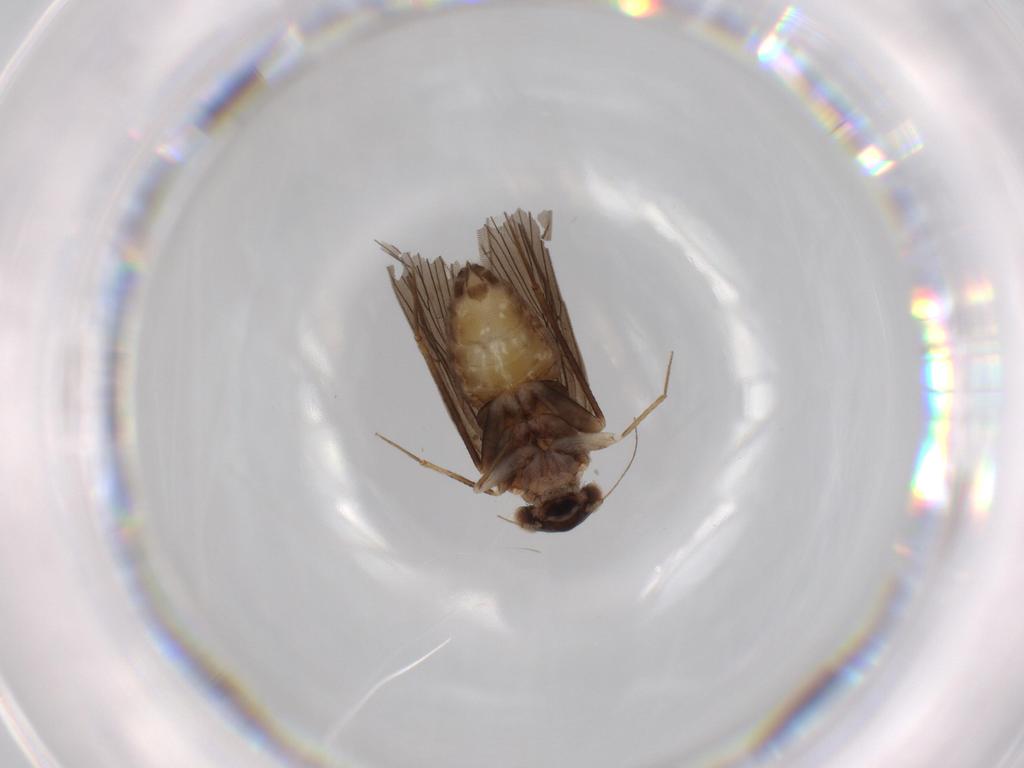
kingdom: Animalia
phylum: Arthropoda
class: Insecta
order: Psocodea
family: Lepidopsocidae
